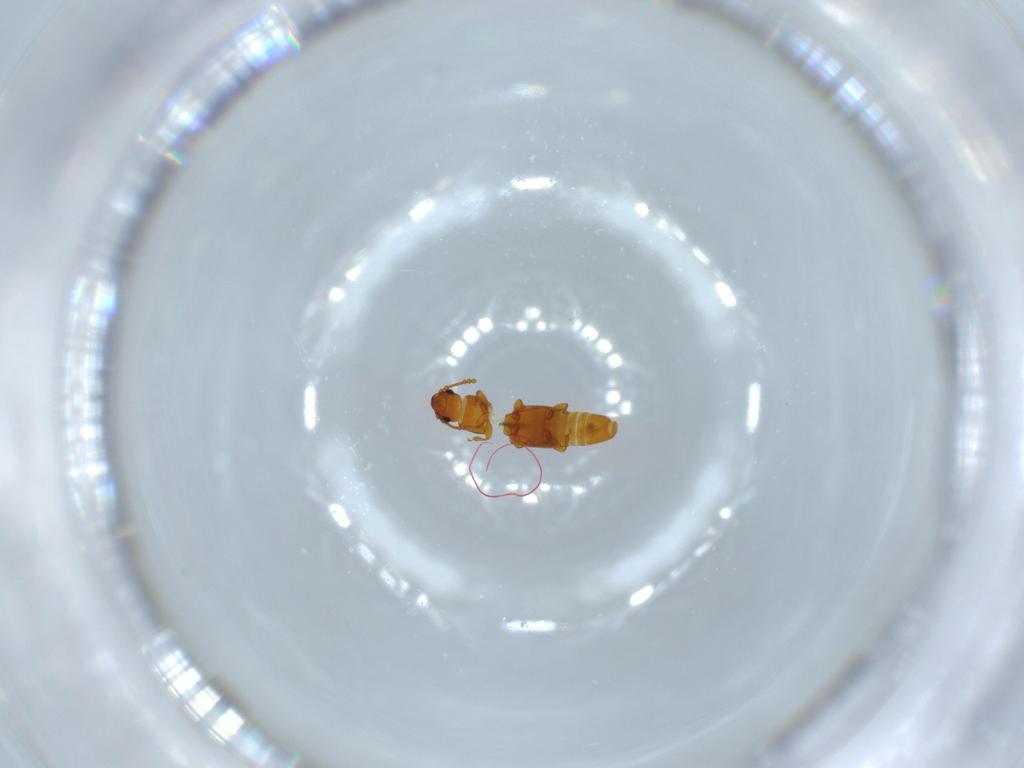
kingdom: Animalia
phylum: Arthropoda
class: Insecta
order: Coleoptera
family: Smicripidae
